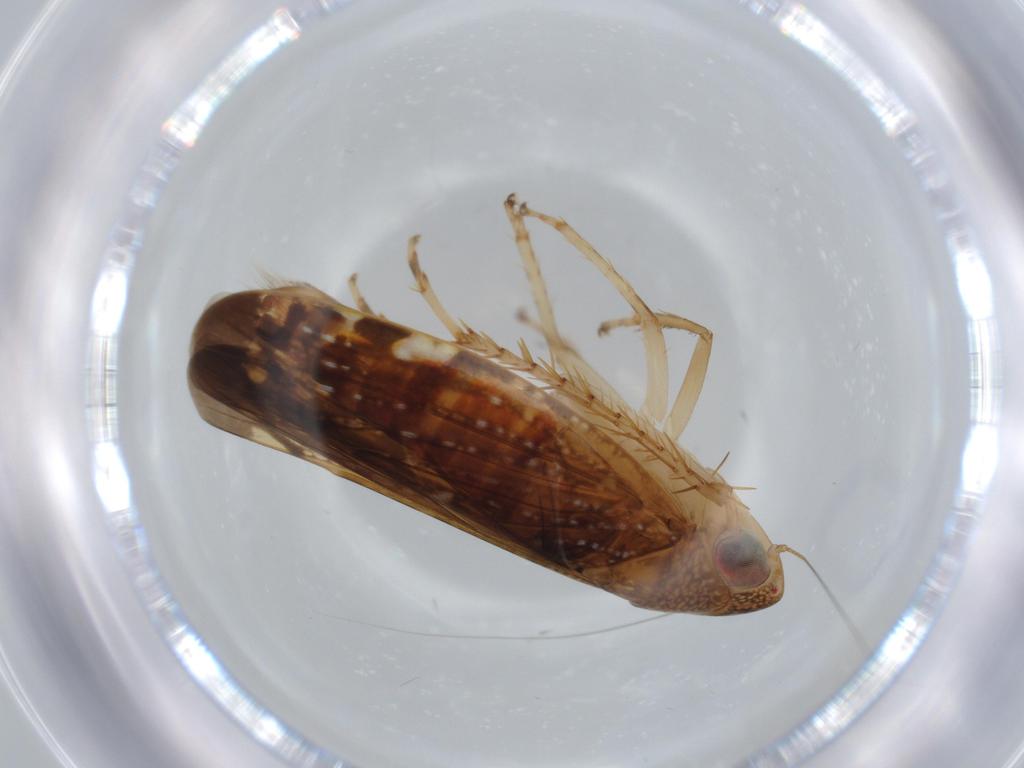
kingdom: Animalia
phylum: Arthropoda
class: Insecta
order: Hemiptera
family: Cicadellidae
